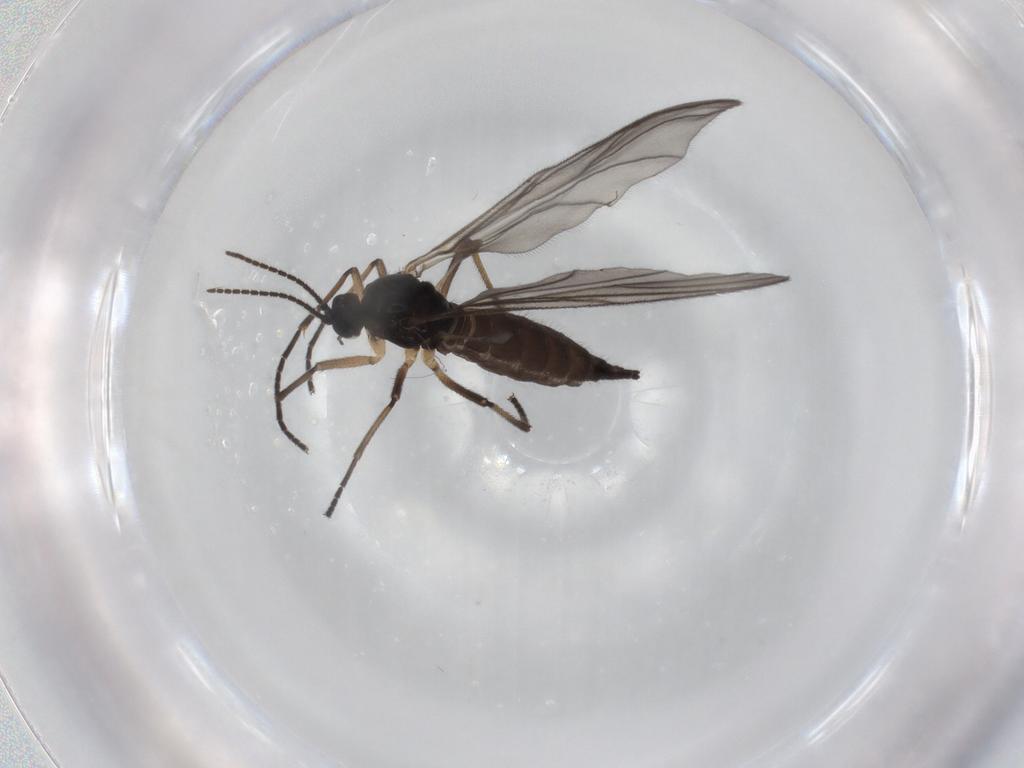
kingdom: Animalia
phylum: Arthropoda
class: Insecta
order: Diptera
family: Sciaridae
